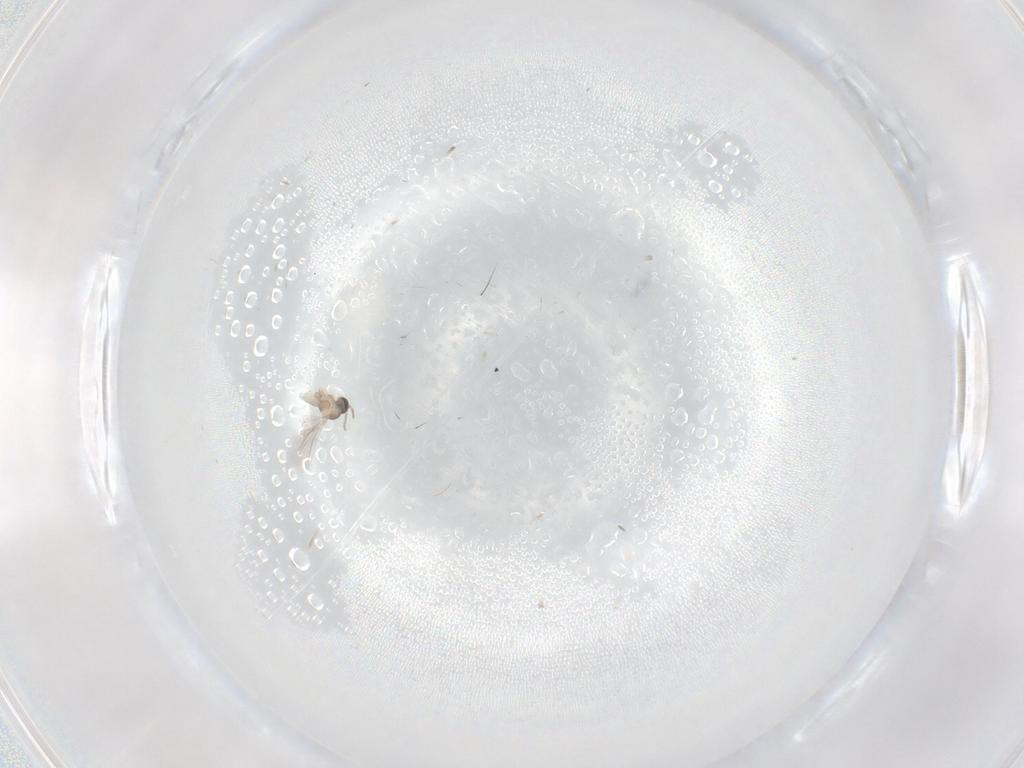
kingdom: Animalia
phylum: Arthropoda
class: Insecta
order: Diptera
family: Cecidomyiidae
